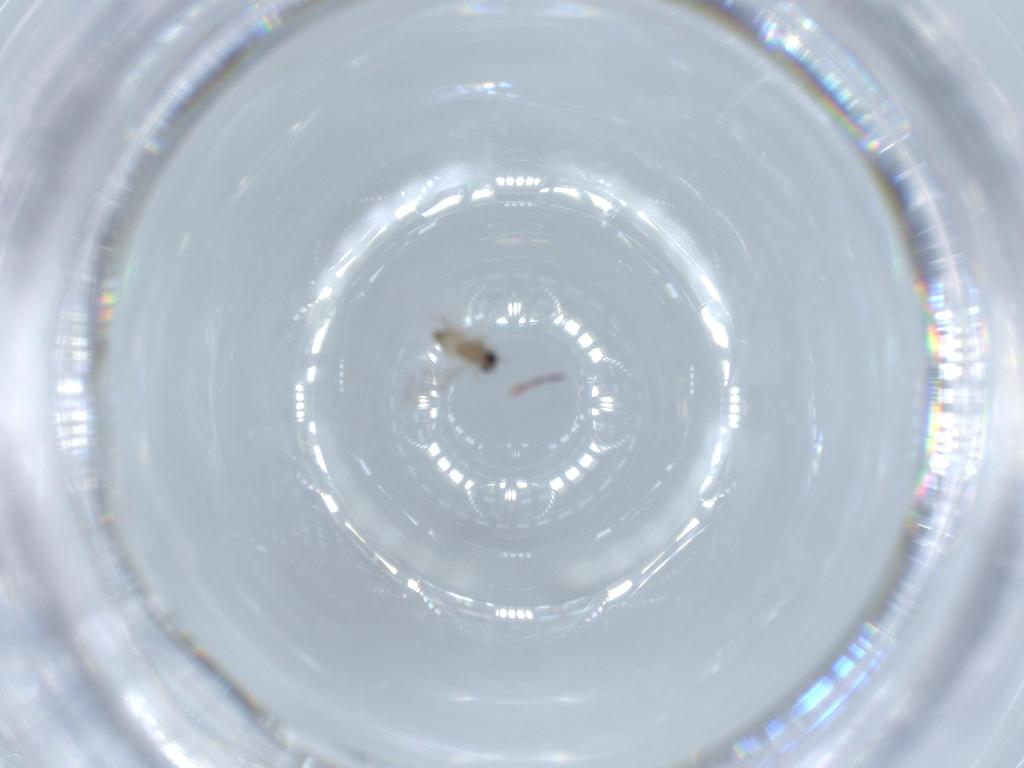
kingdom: Animalia
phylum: Arthropoda
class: Insecta
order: Diptera
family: Cecidomyiidae
